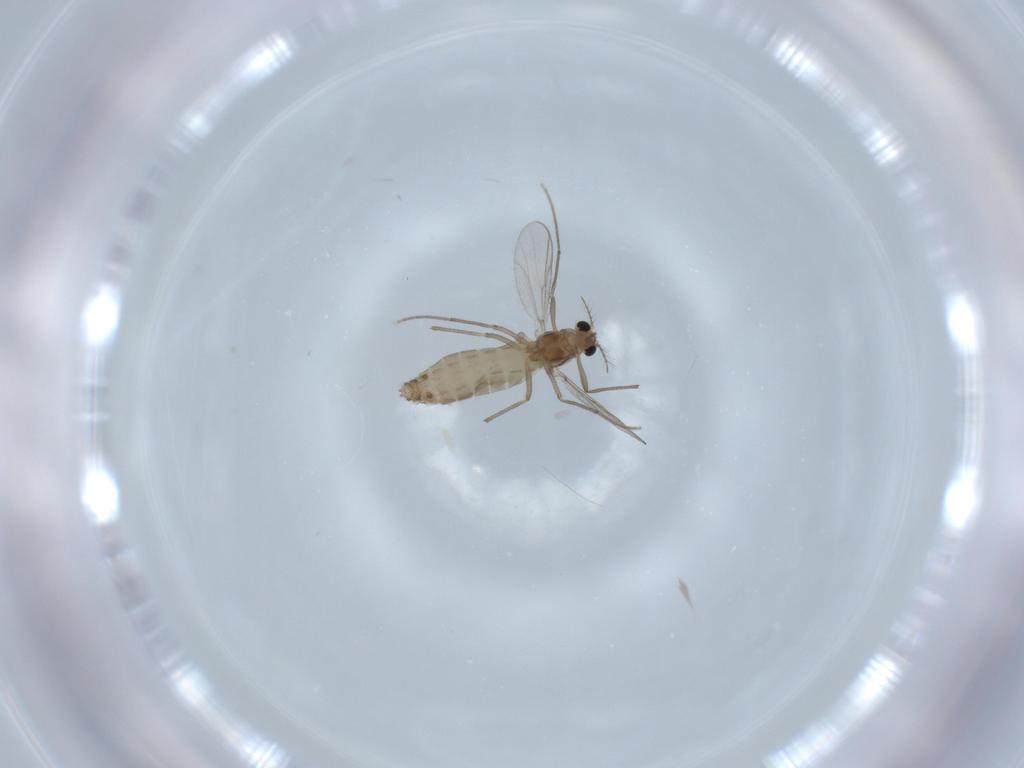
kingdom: Animalia
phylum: Arthropoda
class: Insecta
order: Diptera
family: Chironomidae
